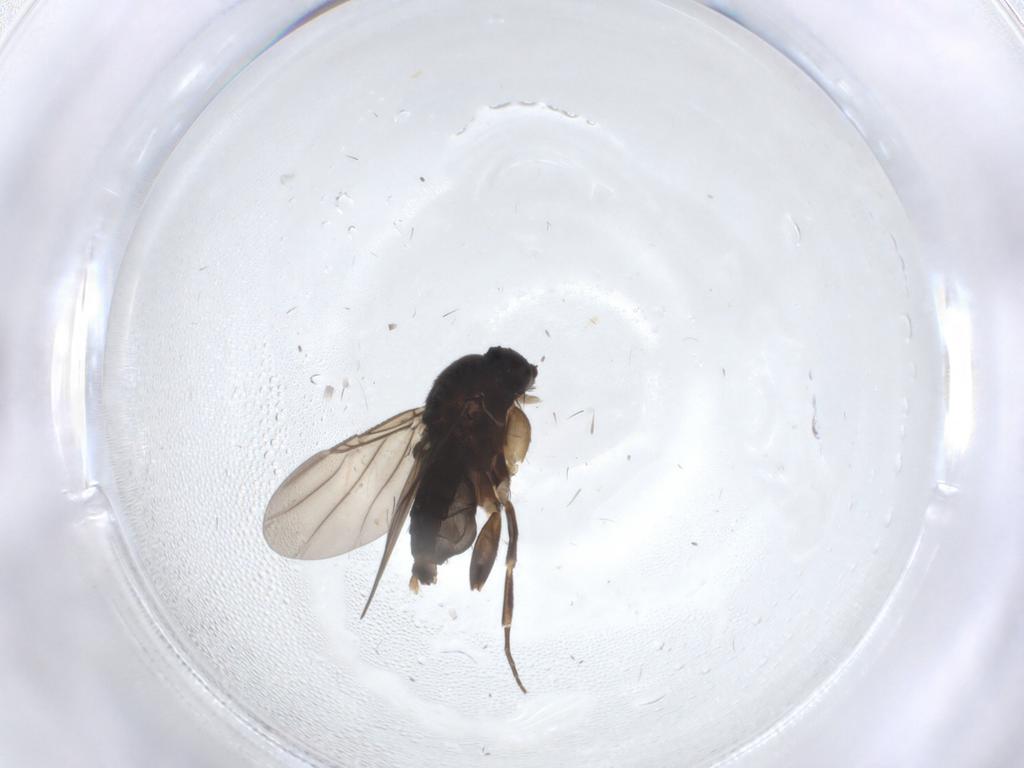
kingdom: Animalia
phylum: Arthropoda
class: Insecta
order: Diptera
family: Phoridae
